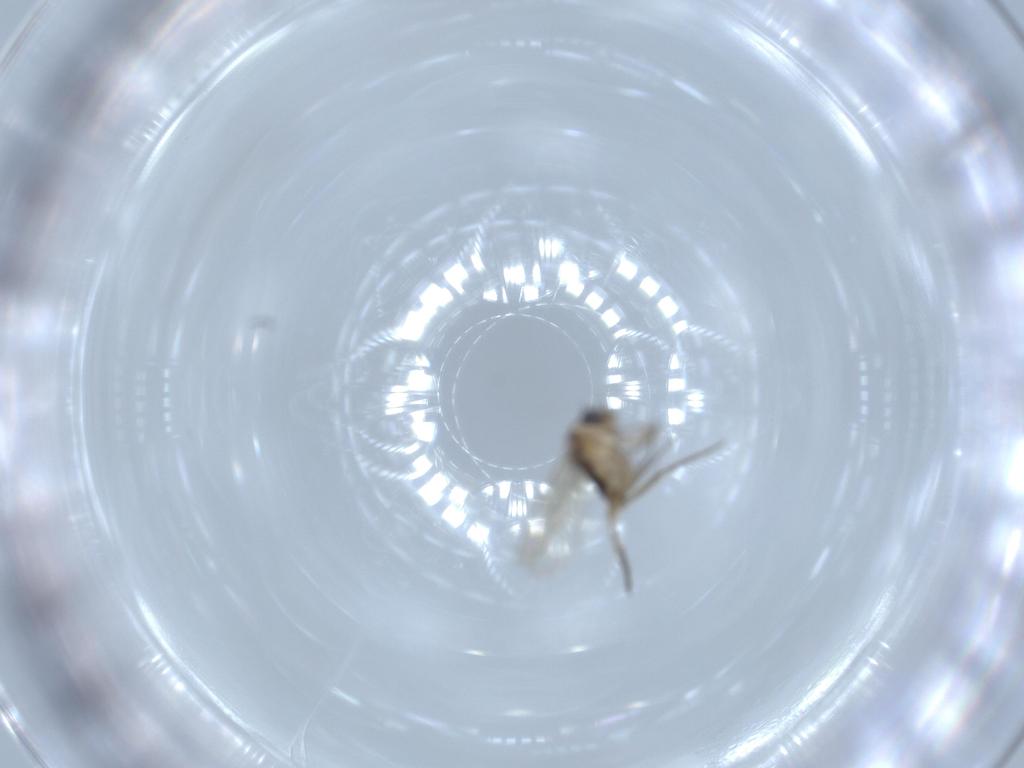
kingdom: Animalia
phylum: Arthropoda
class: Insecta
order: Diptera
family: Phoridae
